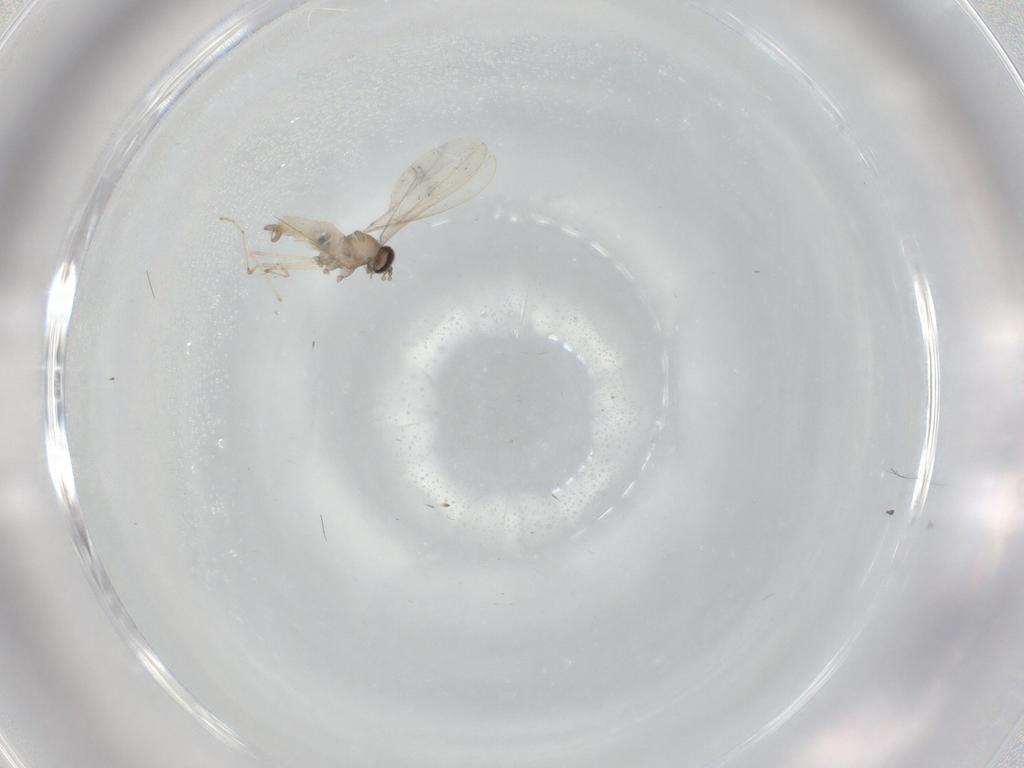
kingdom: Animalia
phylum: Arthropoda
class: Insecta
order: Diptera
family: Cecidomyiidae
